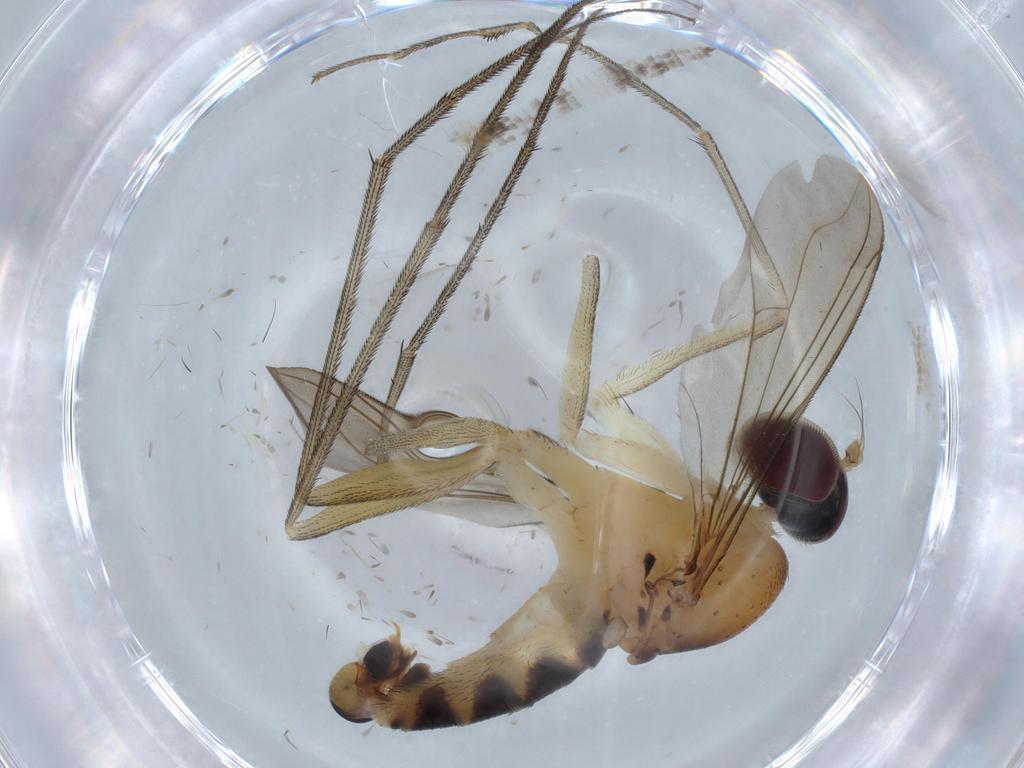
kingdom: Animalia
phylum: Arthropoda
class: Insecta
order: Diptera
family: Dolichopodidae
